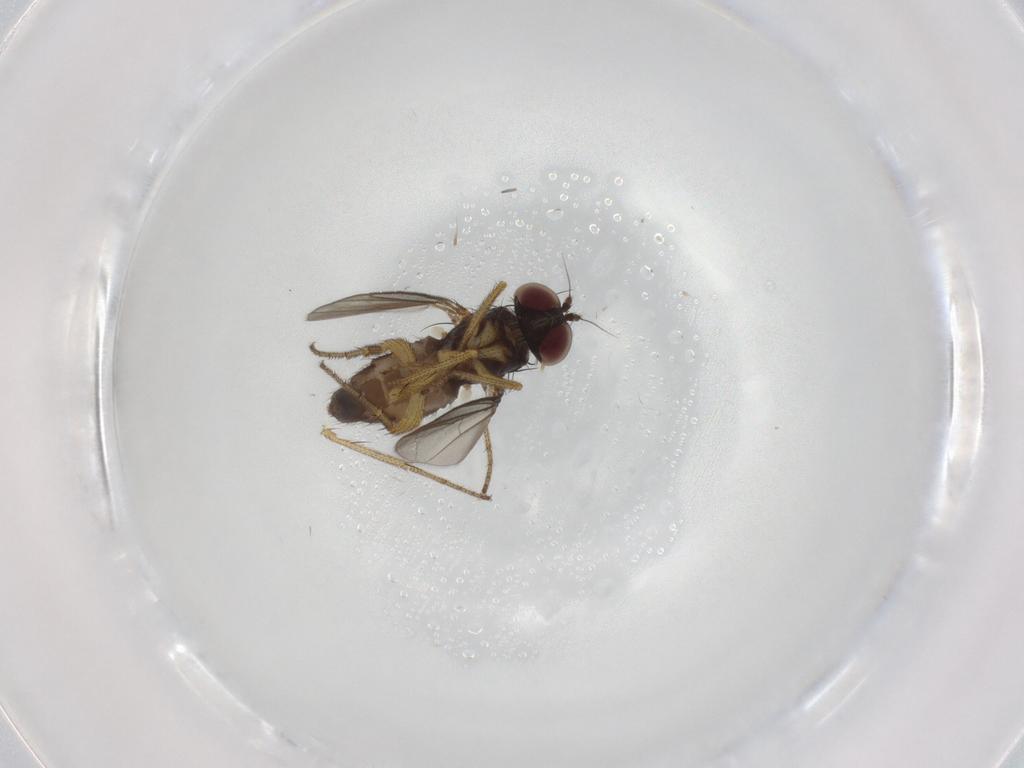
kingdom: Animalia
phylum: Arthropoda
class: Insecta
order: Diptera
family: Dolichopodidae
